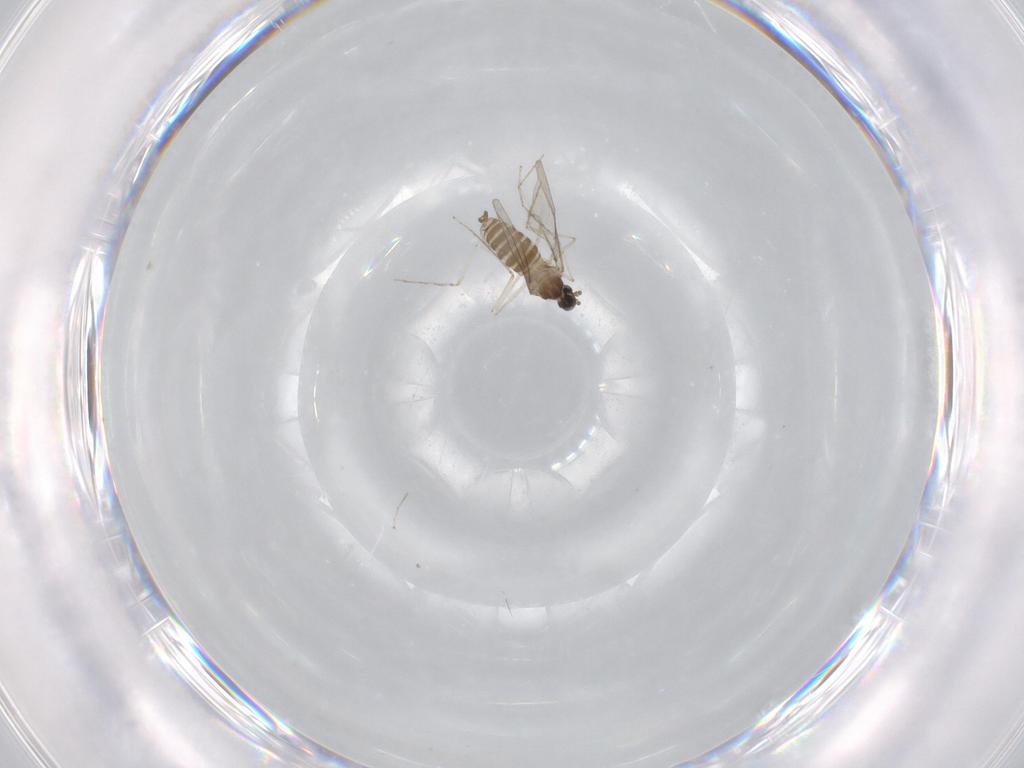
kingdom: Animalia
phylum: Arthropoda
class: Insecta
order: Diptera
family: Cecidomyiidae
